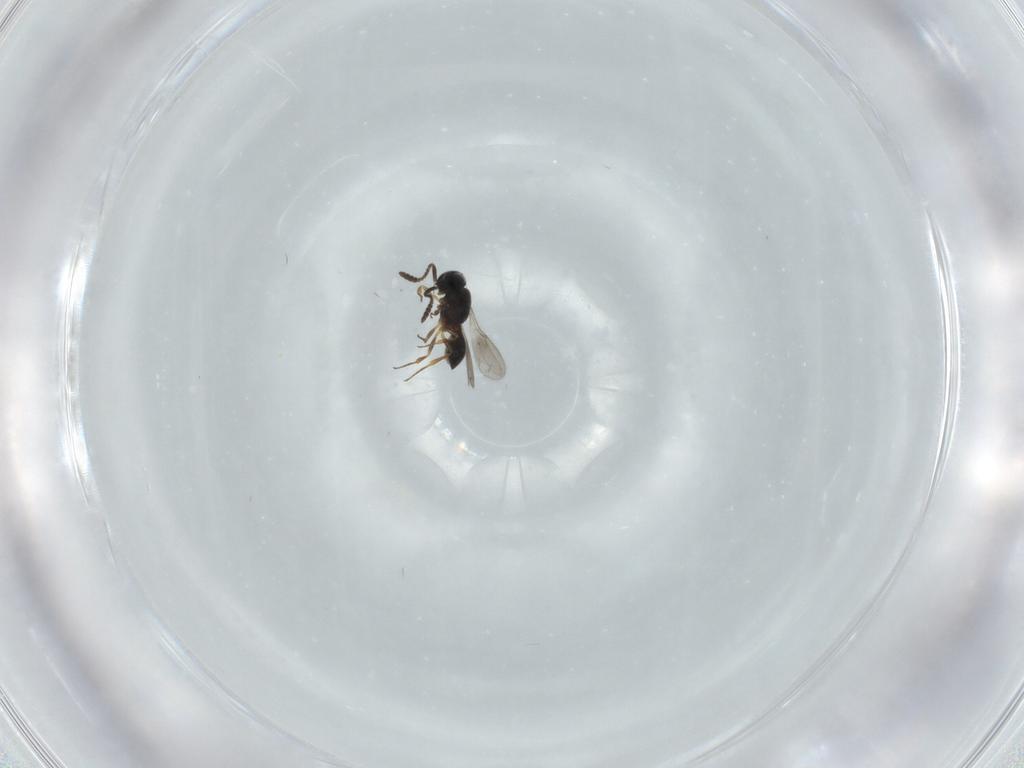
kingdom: Animalia
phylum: Arthropoda
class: Insecta
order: Hymenoptera
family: Scelionidae
